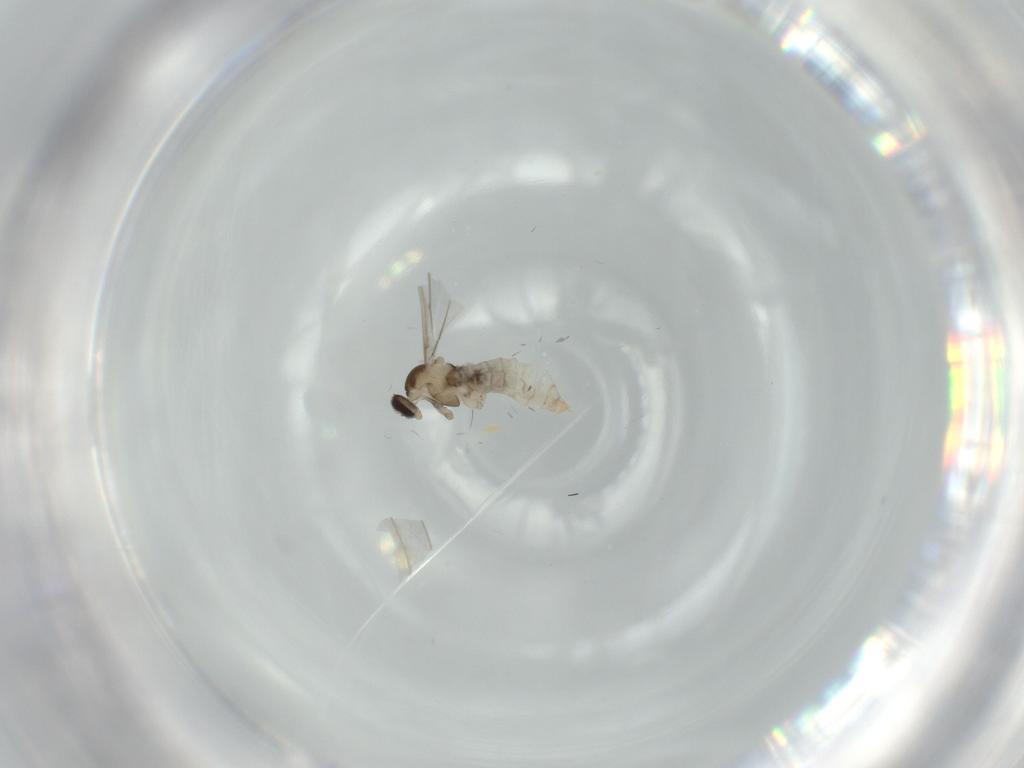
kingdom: Animalia
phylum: Arthropoda
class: Insecta
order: Diptera
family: Cecidomyiidae
